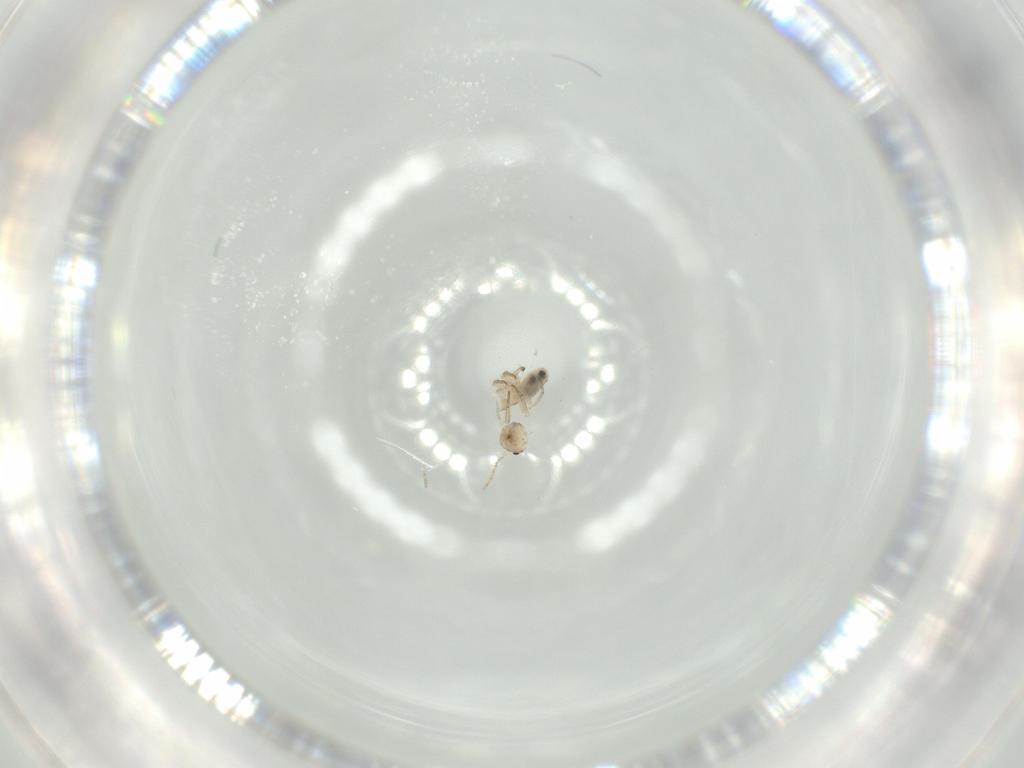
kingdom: Animalia
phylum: Arthropoda
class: Insecta
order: Psocodea
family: Psocidae
